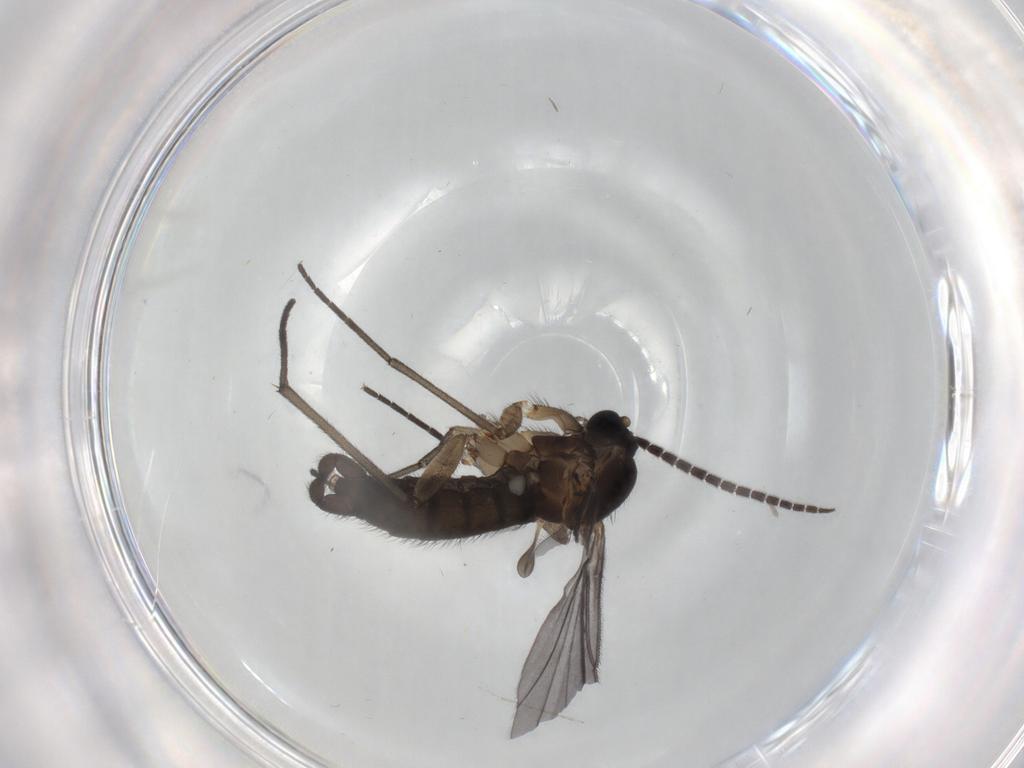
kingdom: Animalia
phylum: Arthropoda
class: Insecta
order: Diptera
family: Sciaridae
